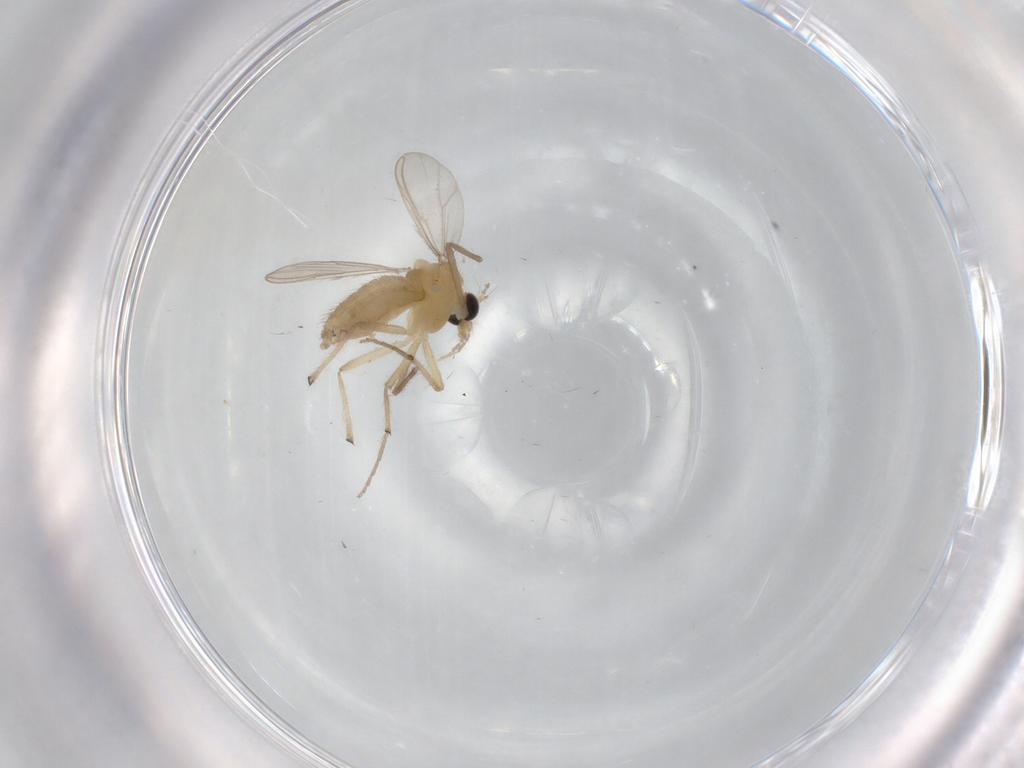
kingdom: Animalia
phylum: Arthropoda
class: Insecta
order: Diptera
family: Chironomidae
